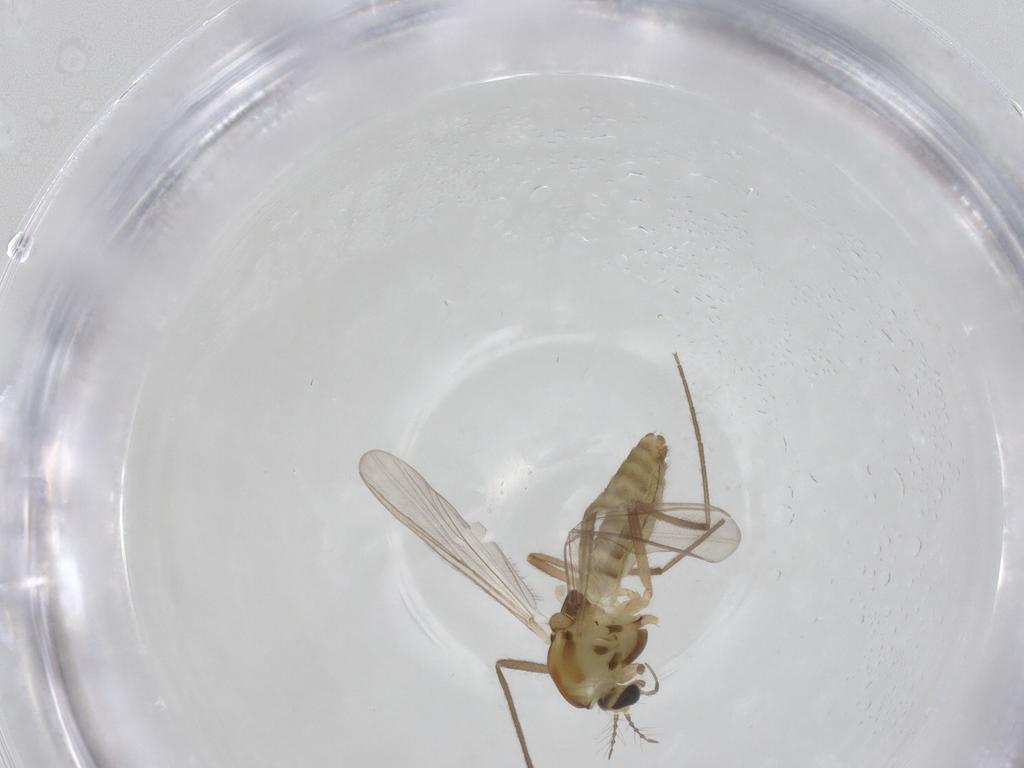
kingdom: Animalia
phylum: Arthropoda
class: Insecta
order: Diptera
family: Chironomidae
